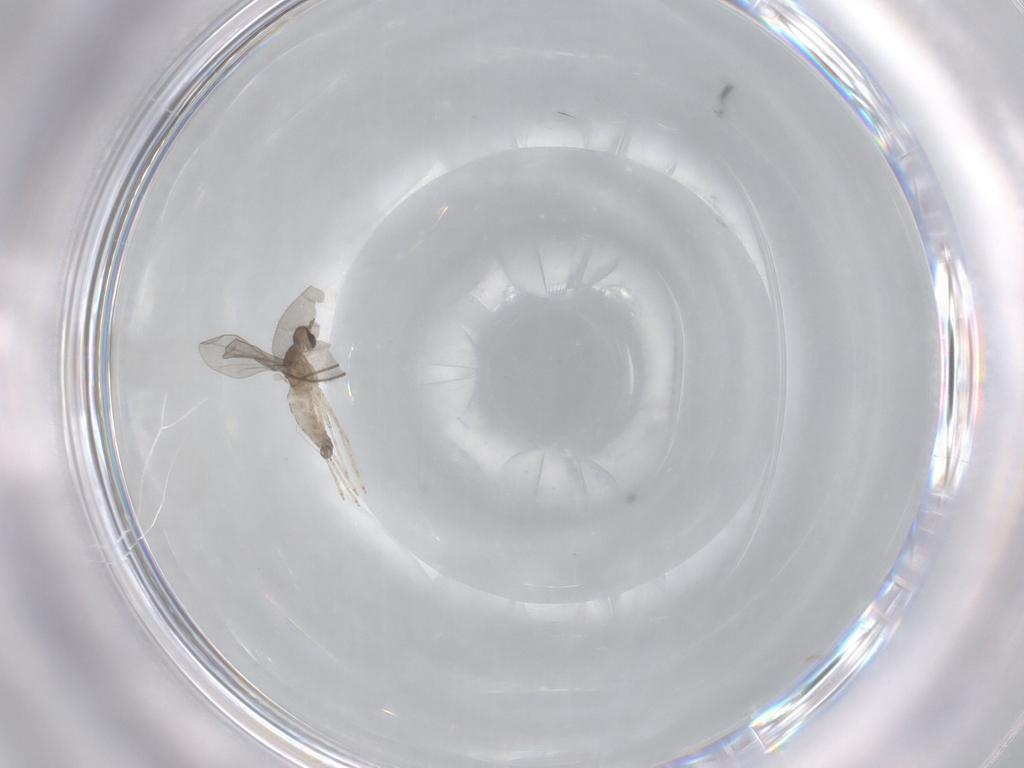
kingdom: Animalia
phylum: Arthropoda
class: Insecta
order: Diptera
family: Cecidomyiidae
